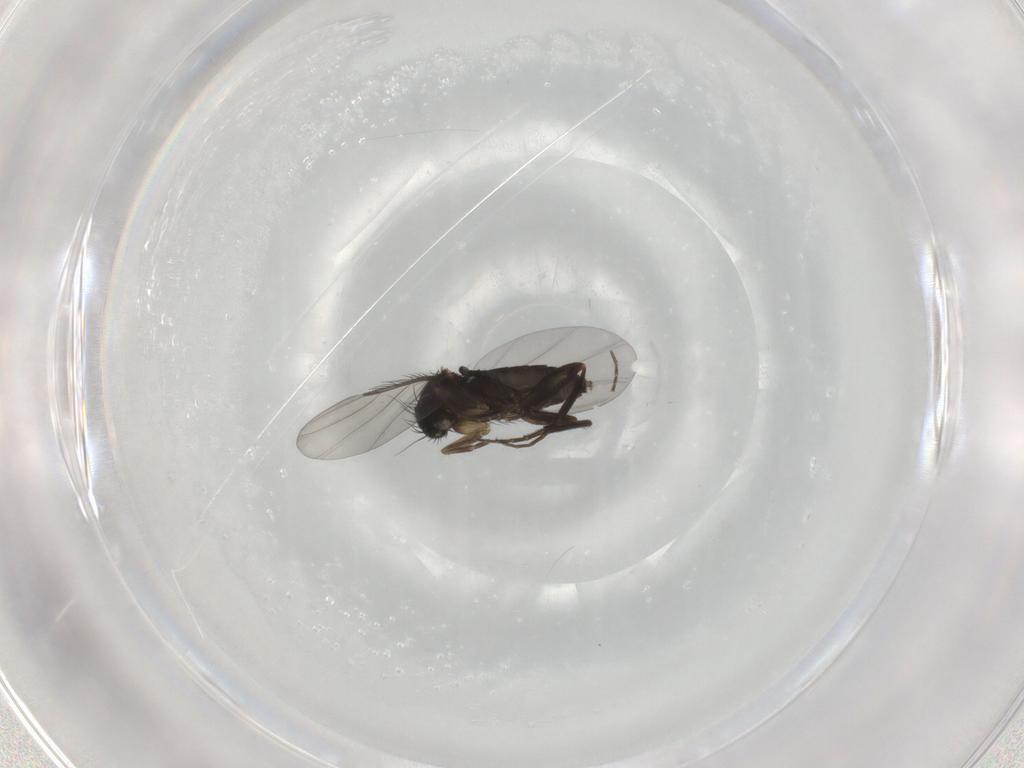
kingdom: Animalia
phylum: Arthropoda
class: Insecta
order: Diptera
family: Phoridae
